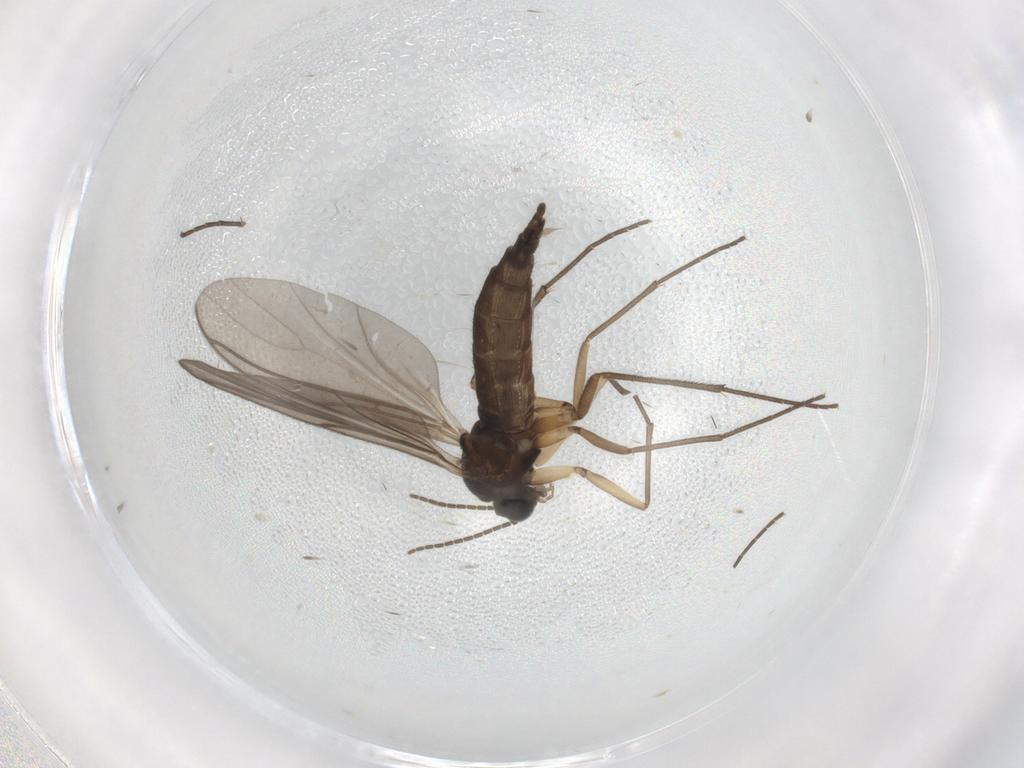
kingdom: Animalia
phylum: Arthropoda
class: Insecta
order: Diptera
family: Sciaridae
